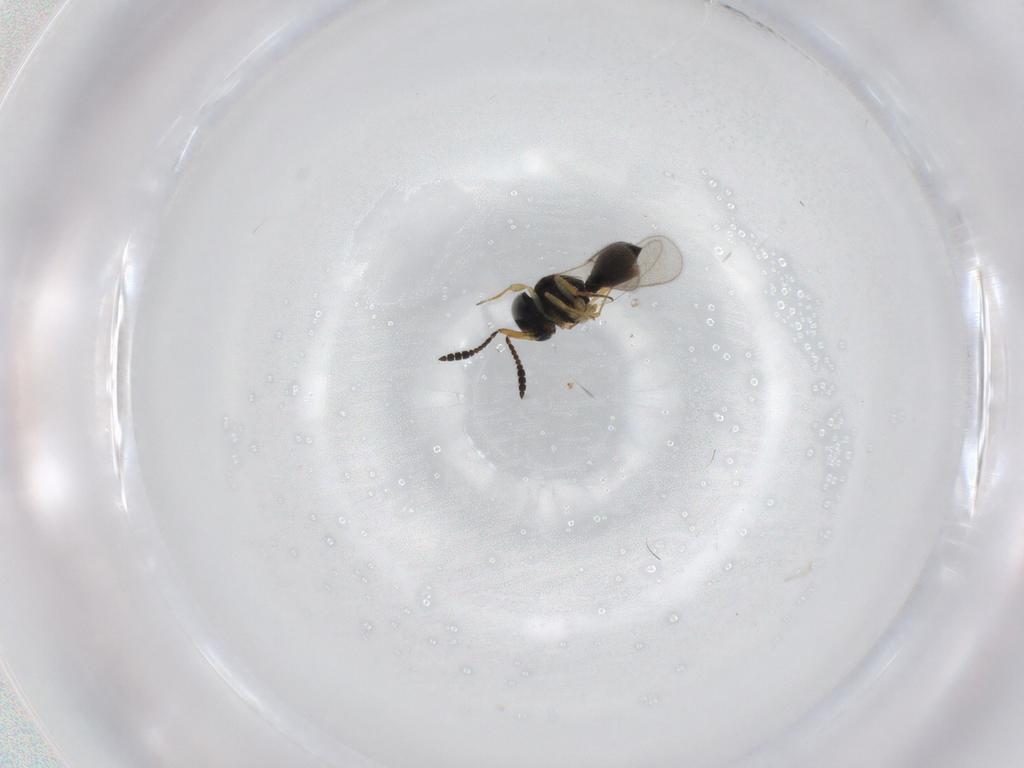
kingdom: Animalia
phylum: Arthropoda
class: Insecta
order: Hymenoptera
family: Scelionidae
